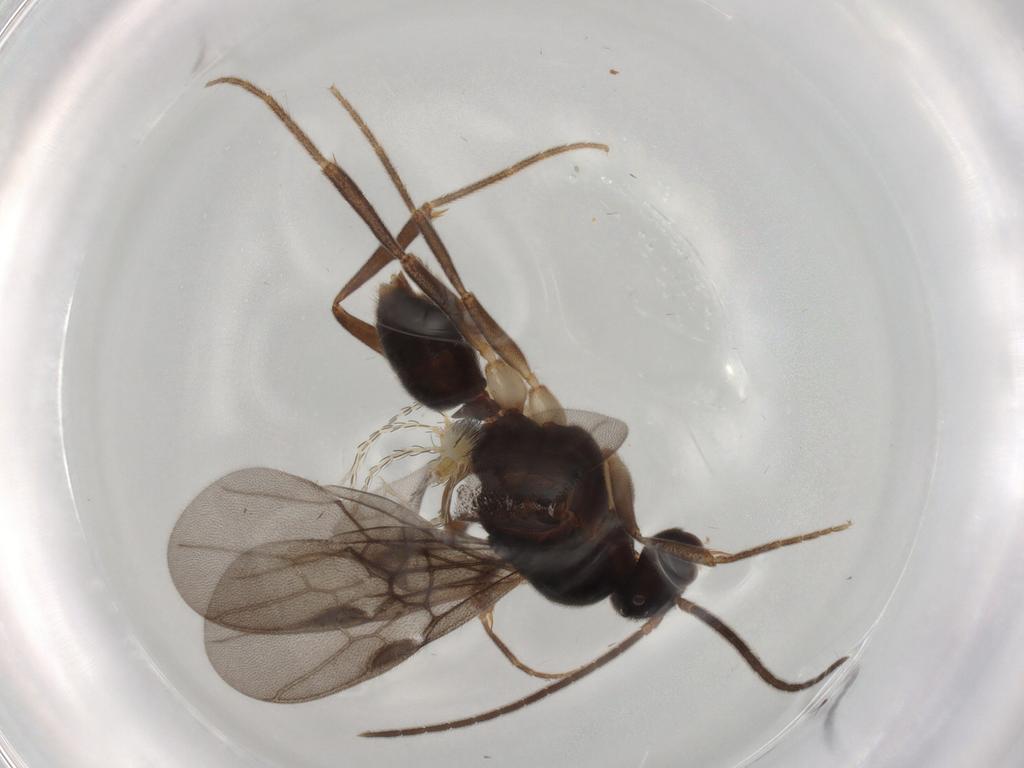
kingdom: Animalia
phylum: Arthropoda
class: Insecta
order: Hymenoptera
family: Formicidae
